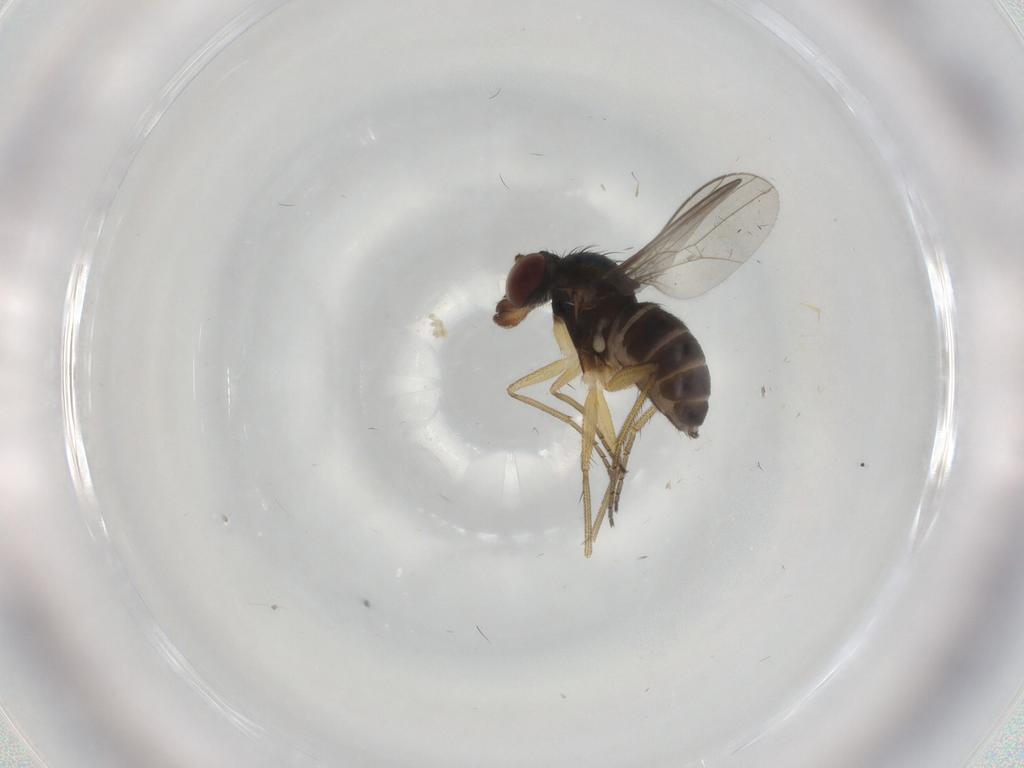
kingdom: Animalia
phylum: Arthropoda
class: Insecta
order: Diptera
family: Dolichopodidae
